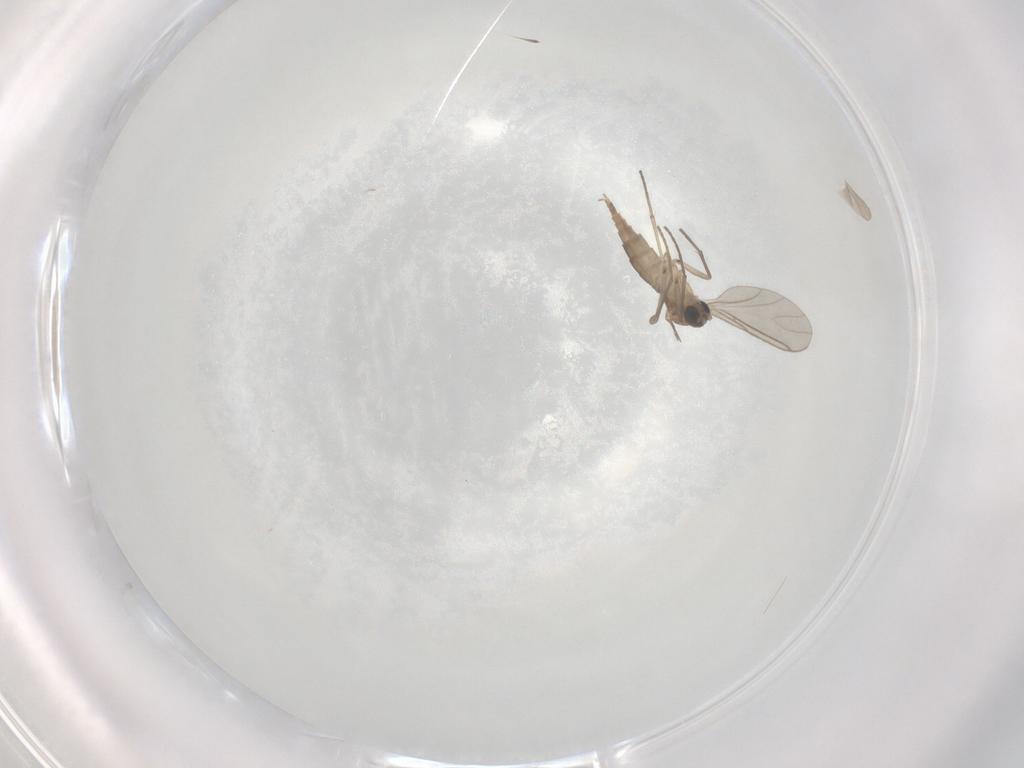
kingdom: Animalia
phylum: Arthropoda
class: Insecta
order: Diptera
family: Sciaridae
